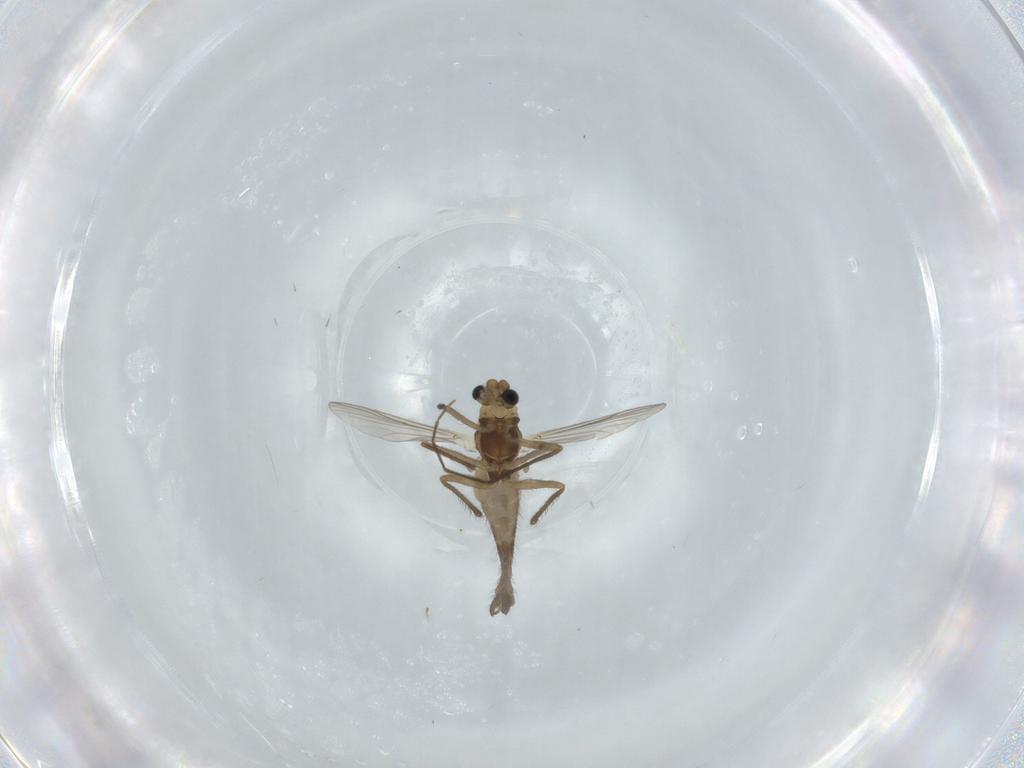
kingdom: Animalia
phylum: Arthropoda
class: Insecta
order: Diptera
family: Chironomidae
